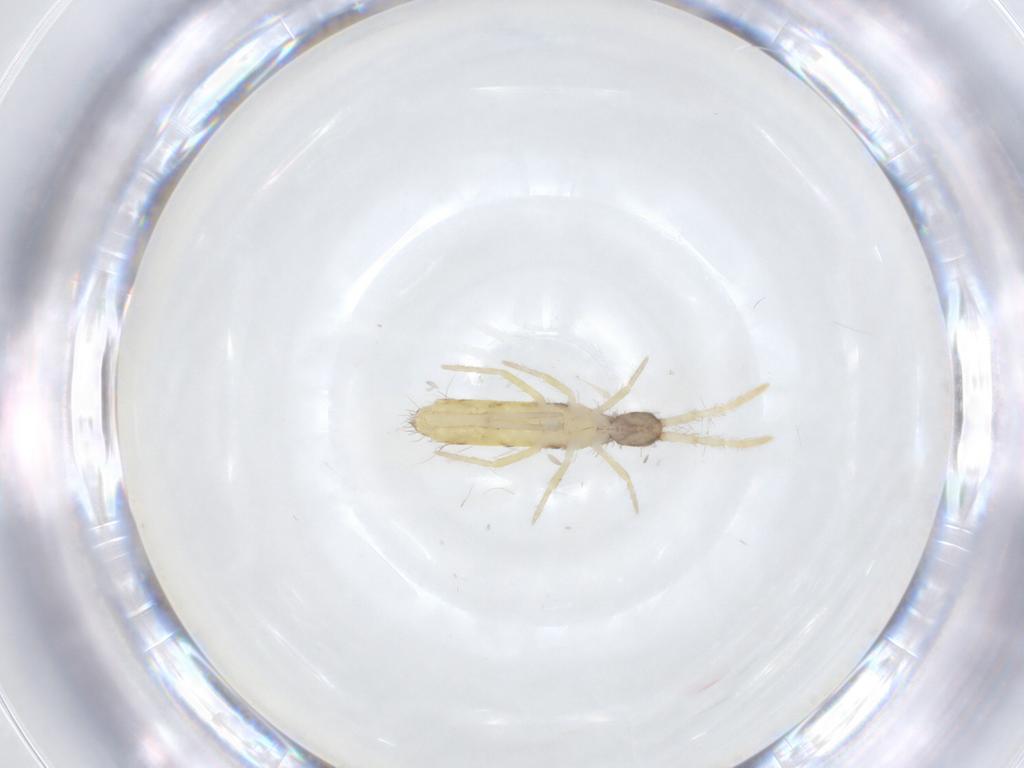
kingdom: Animalia
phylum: Arthropoda
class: Collembola
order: Entomobryomorpha
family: Entomobryidae
